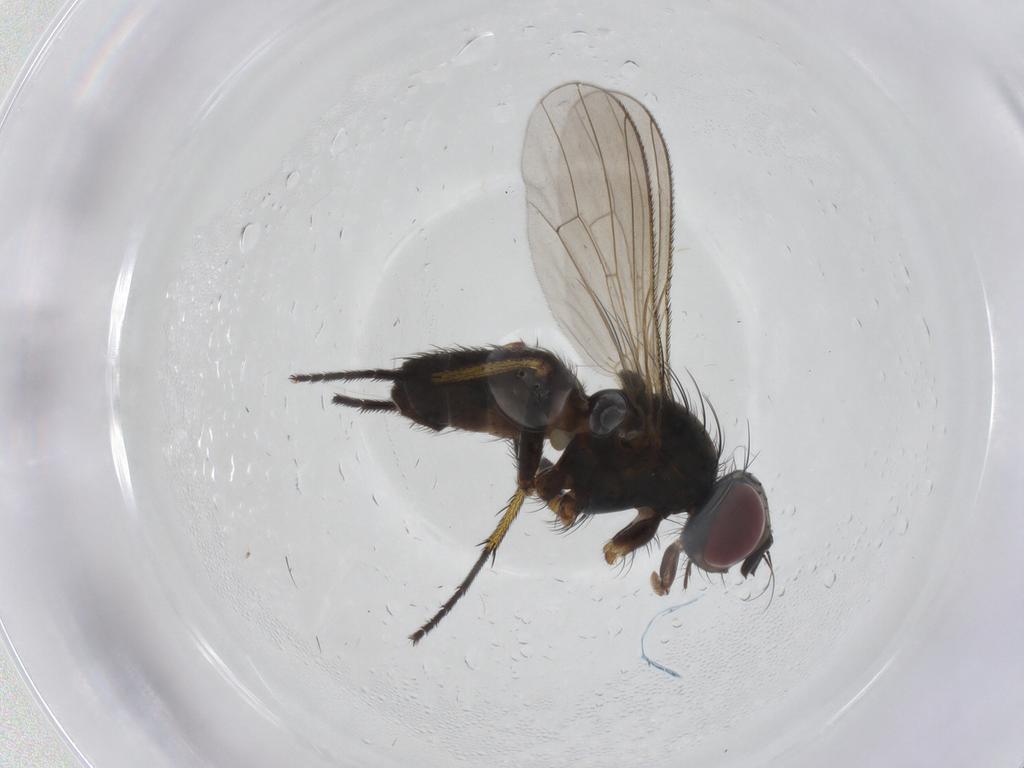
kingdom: Animalia
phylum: Arthropoda
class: Insecta
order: Diptera
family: Muscidae
